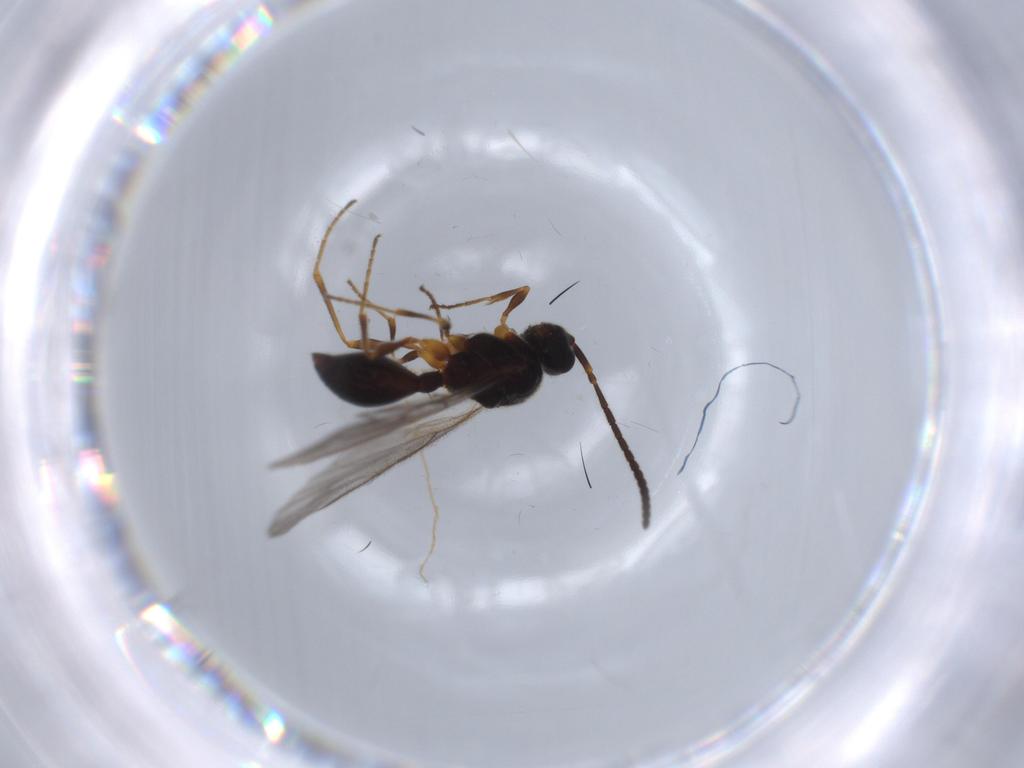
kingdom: Animalia
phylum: Arthropoda
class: Insecta
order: Hymenoptera
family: Diapriidae
